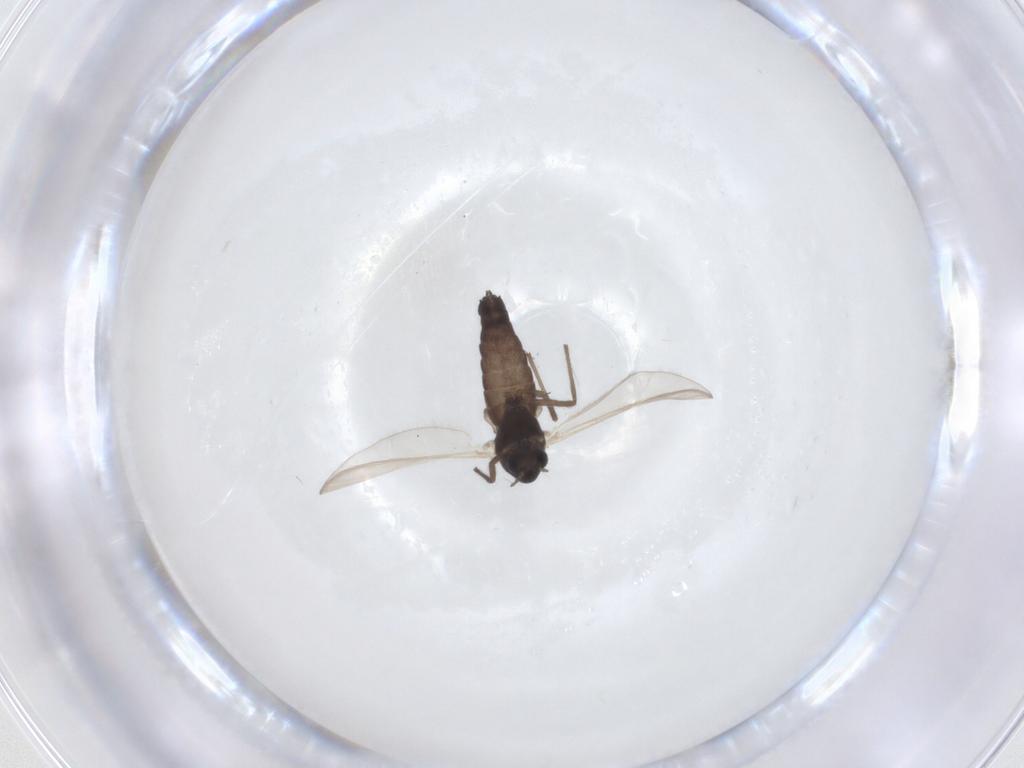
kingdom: Animalia
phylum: Arthropoda
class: Insecta
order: Diptera
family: Chironomidae
